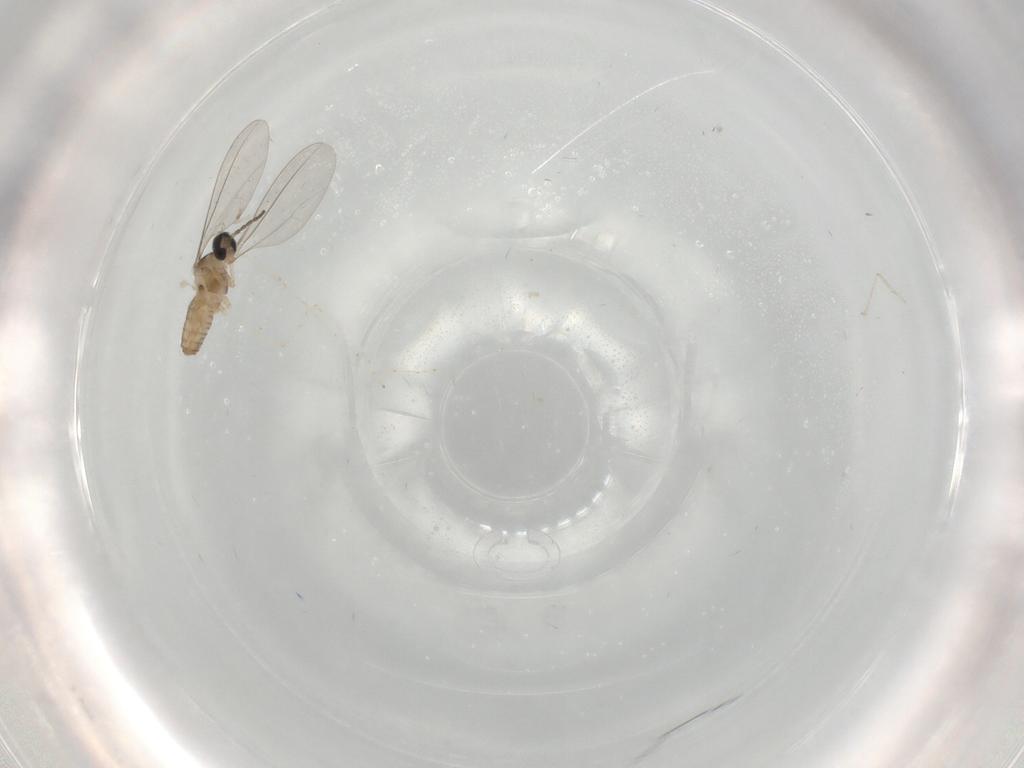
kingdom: Animalia
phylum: Arthropoda
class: Insecta
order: Diptera
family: Cecidomyiidae
